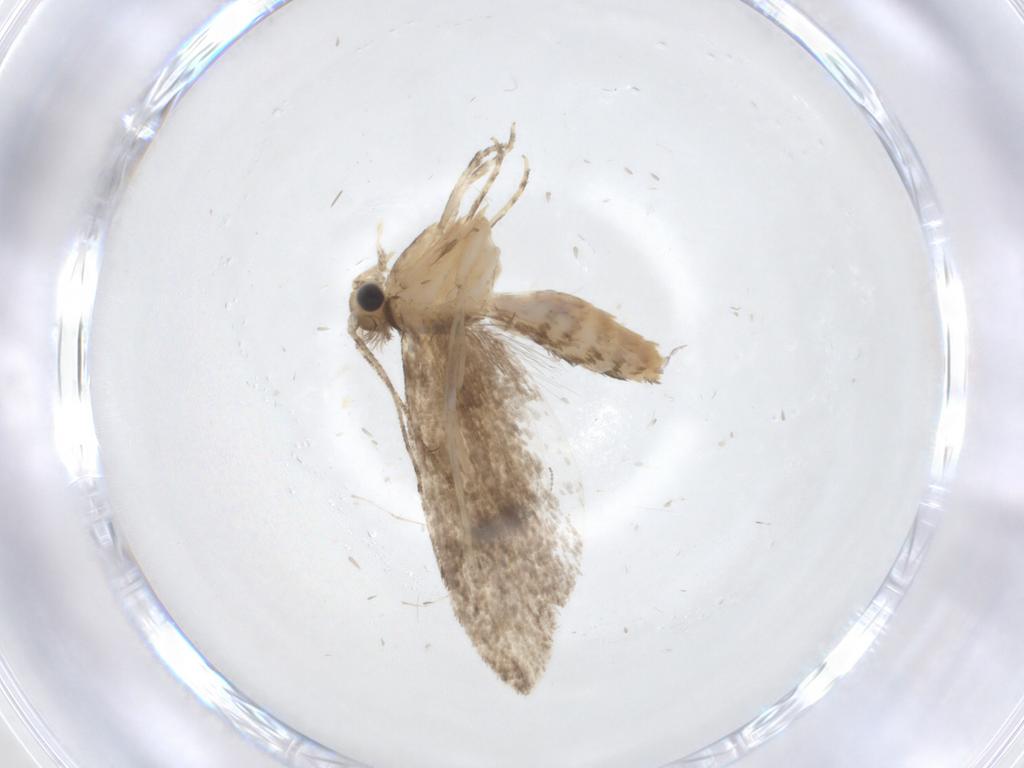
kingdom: Animalia
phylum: Arthropoda
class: Insecta
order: Lepidoptera
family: Tineidae
